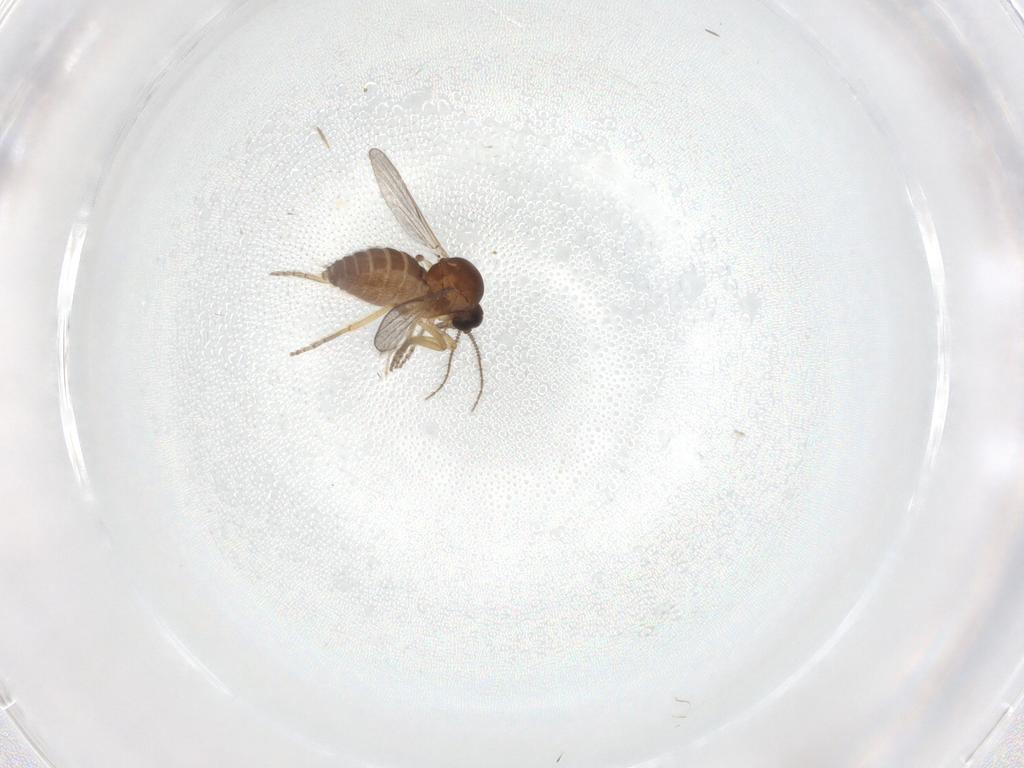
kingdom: Animalia
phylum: Arthropoda
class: Insecta
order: Diptera
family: Ceratopogonidae
